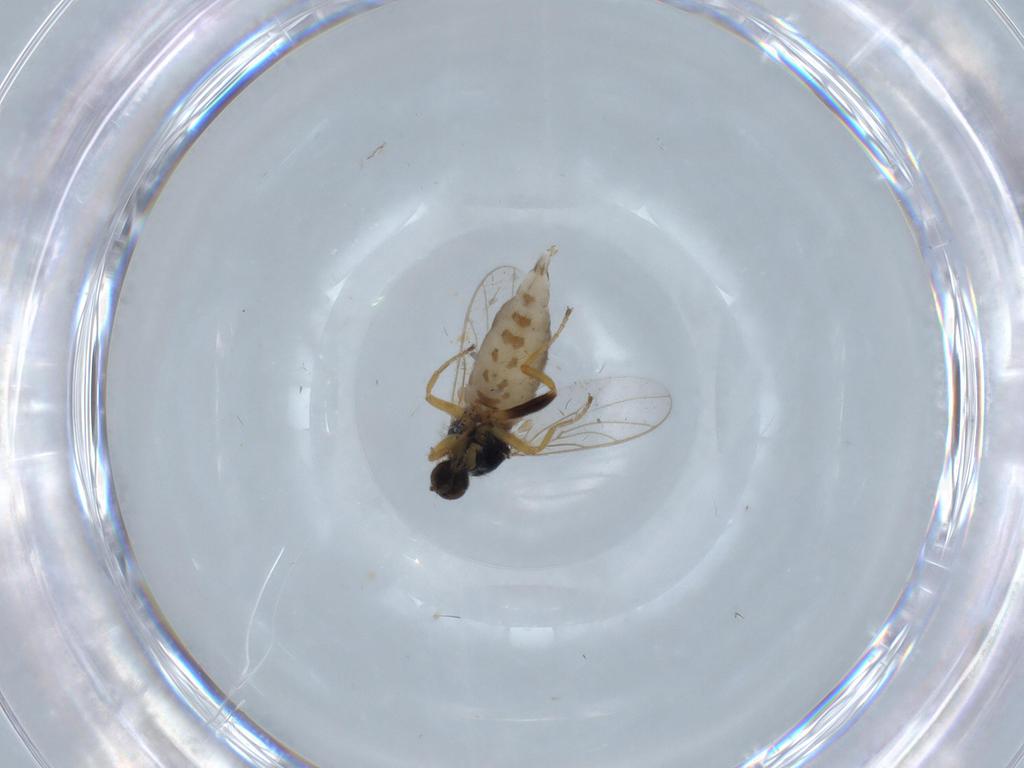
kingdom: Animalia
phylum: Arthropoda
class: Insecta
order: Diptera
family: Hybotidae
